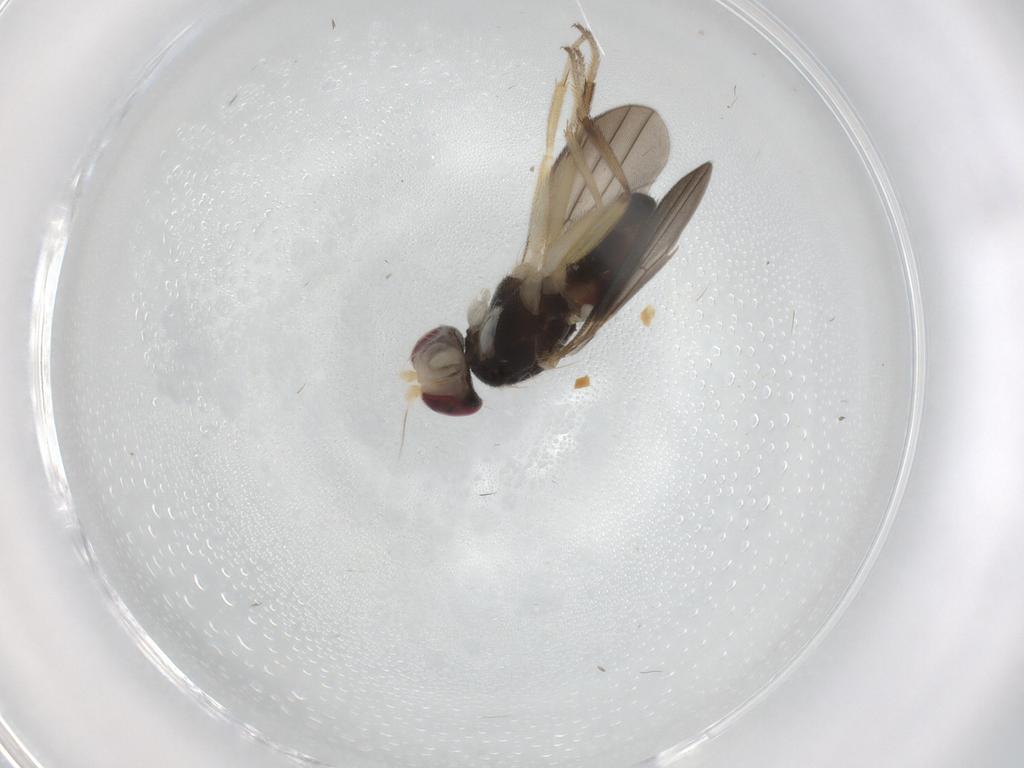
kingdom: Animalia
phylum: Arthropoda
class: Insecta
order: Diptera
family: Clusiidae
